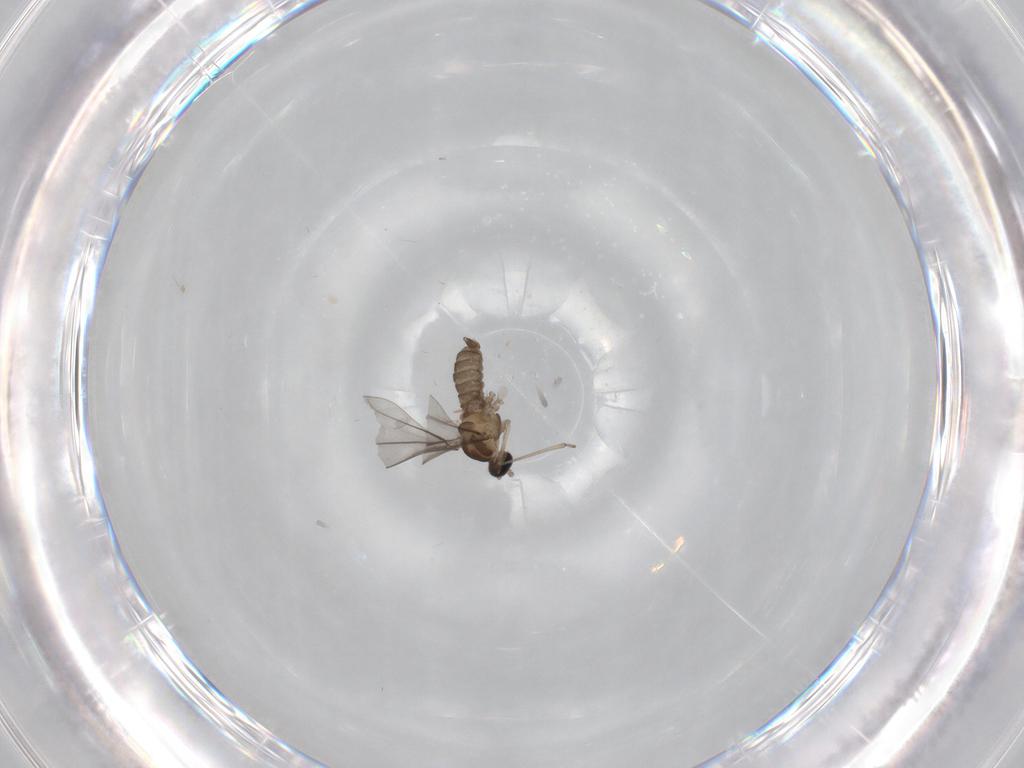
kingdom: Animalia
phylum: Arthropoda
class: Insecta
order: Diptera
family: Cecidomyiidae
